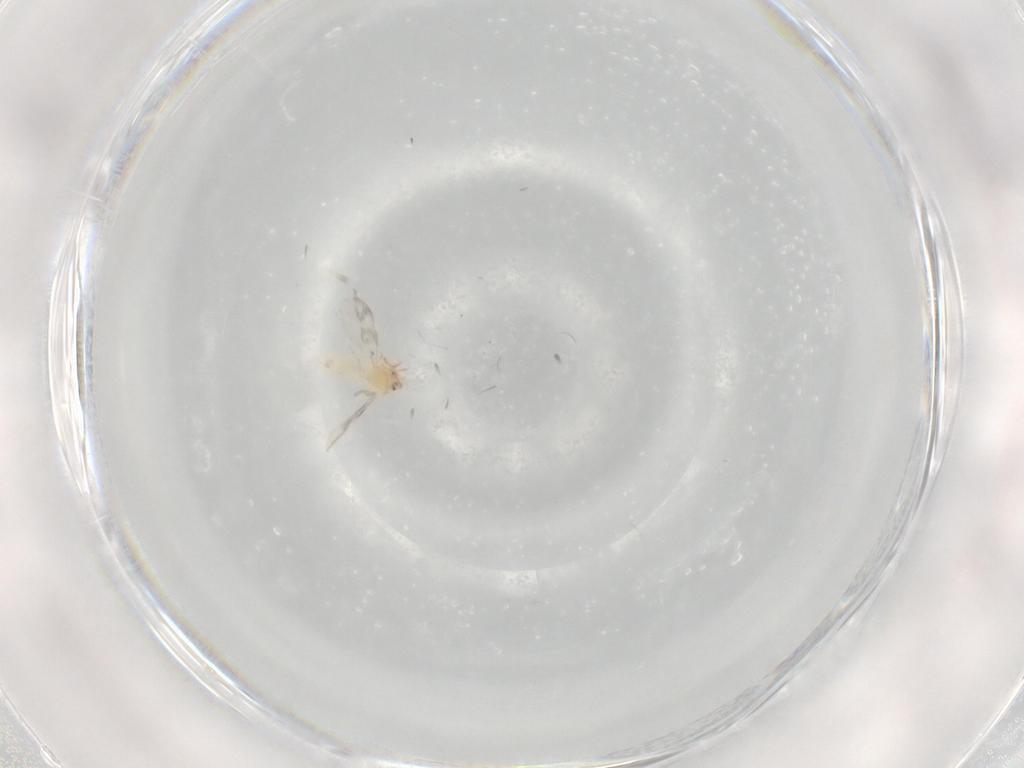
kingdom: Animalia
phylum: Arthropoda
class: Insecta
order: Hemiptera
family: Aleyrodidae
